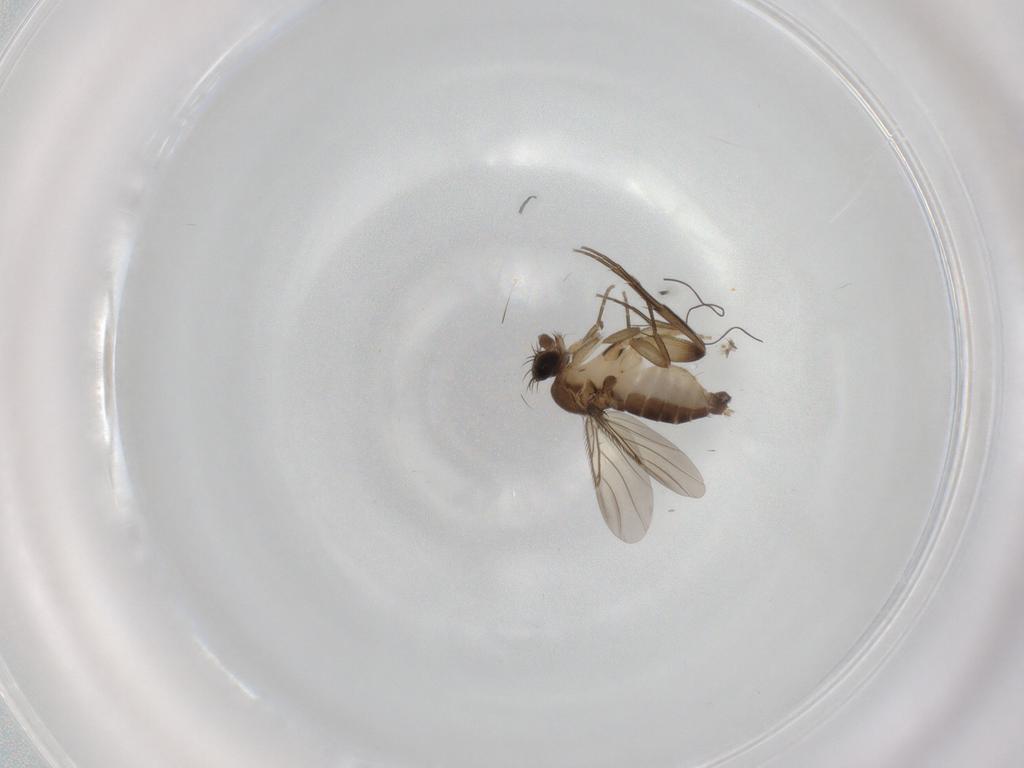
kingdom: Animalia
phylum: Arthropoda
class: Insecta
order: Diptera
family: Phoridae
